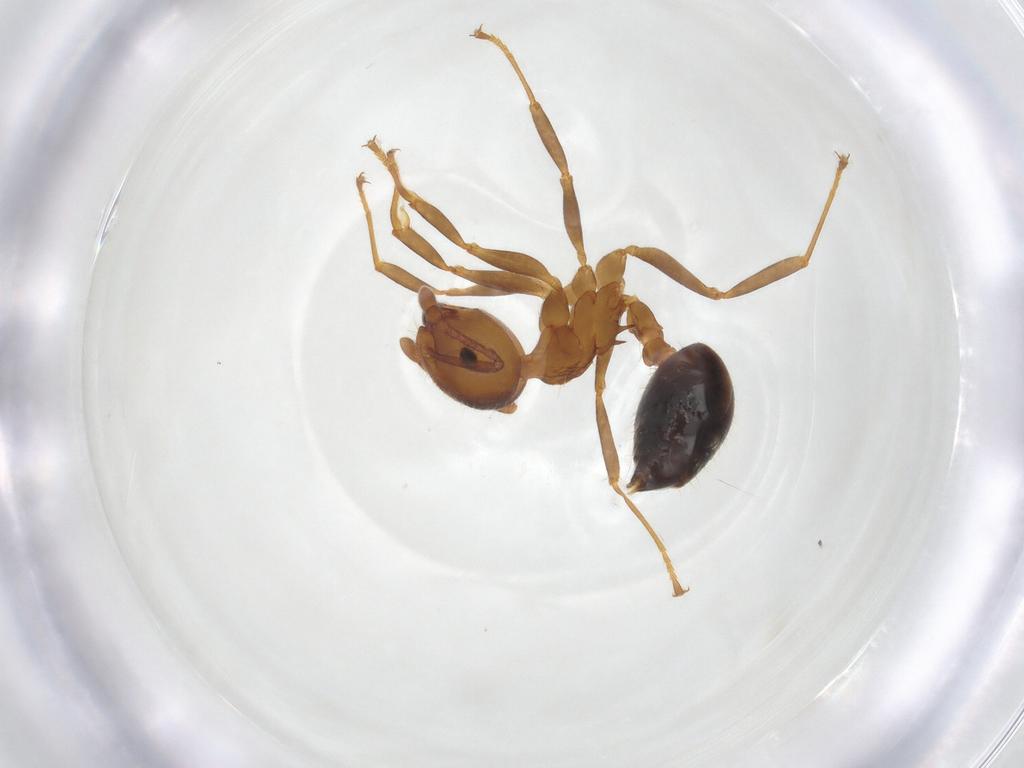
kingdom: Animalia
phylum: Arthropoda
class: Insecta
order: Hymenoptera
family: Formicidae
